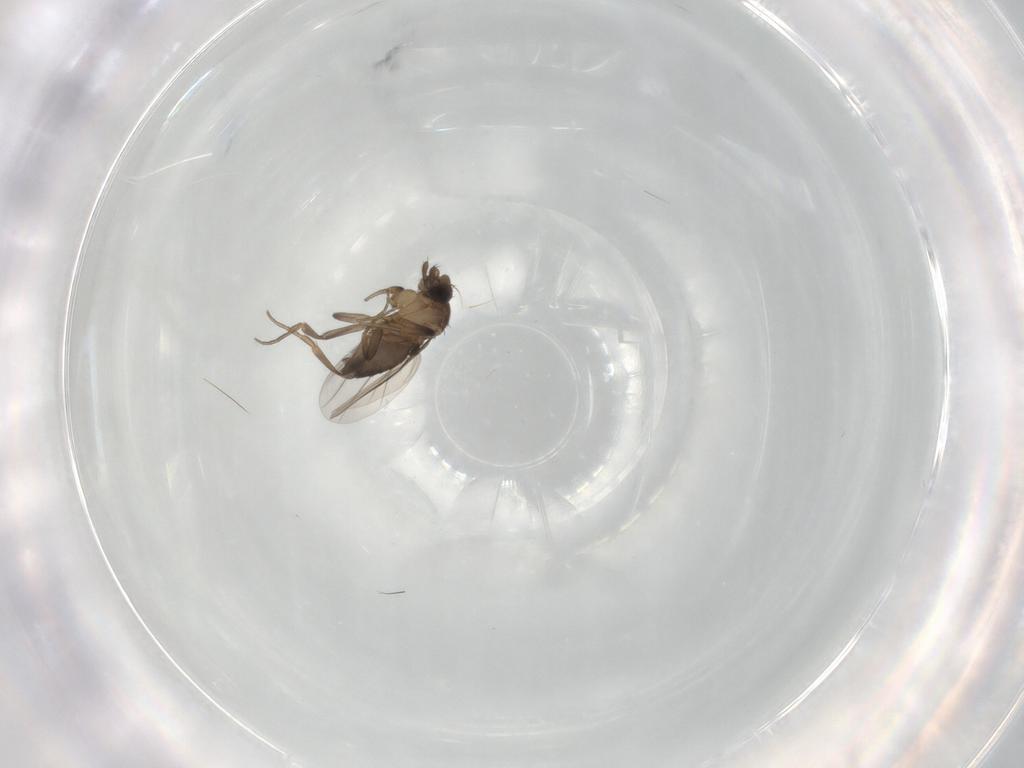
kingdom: Animalia
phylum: Arthropoda
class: Insecta
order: Diptera
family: Phoridae
